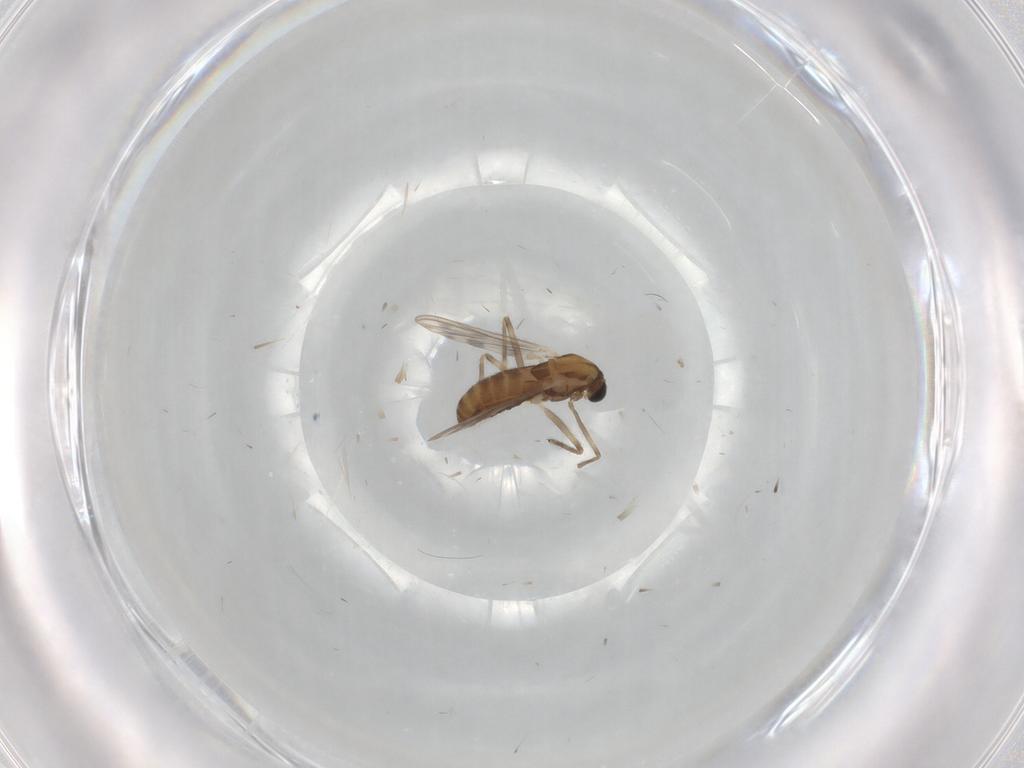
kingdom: Animalia
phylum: Arthropoda
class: Insecta
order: Diptera
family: Chironomidae
